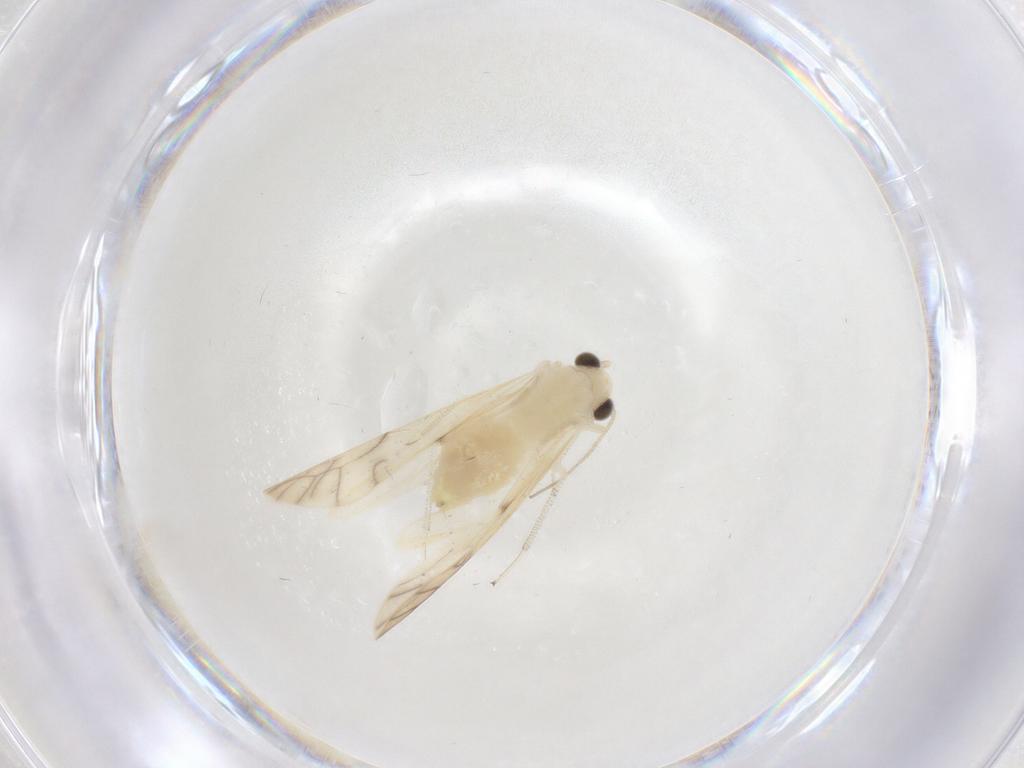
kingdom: Animalia
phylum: Arthropoda
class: Insecta
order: Psocodea
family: Caeciliusidae
